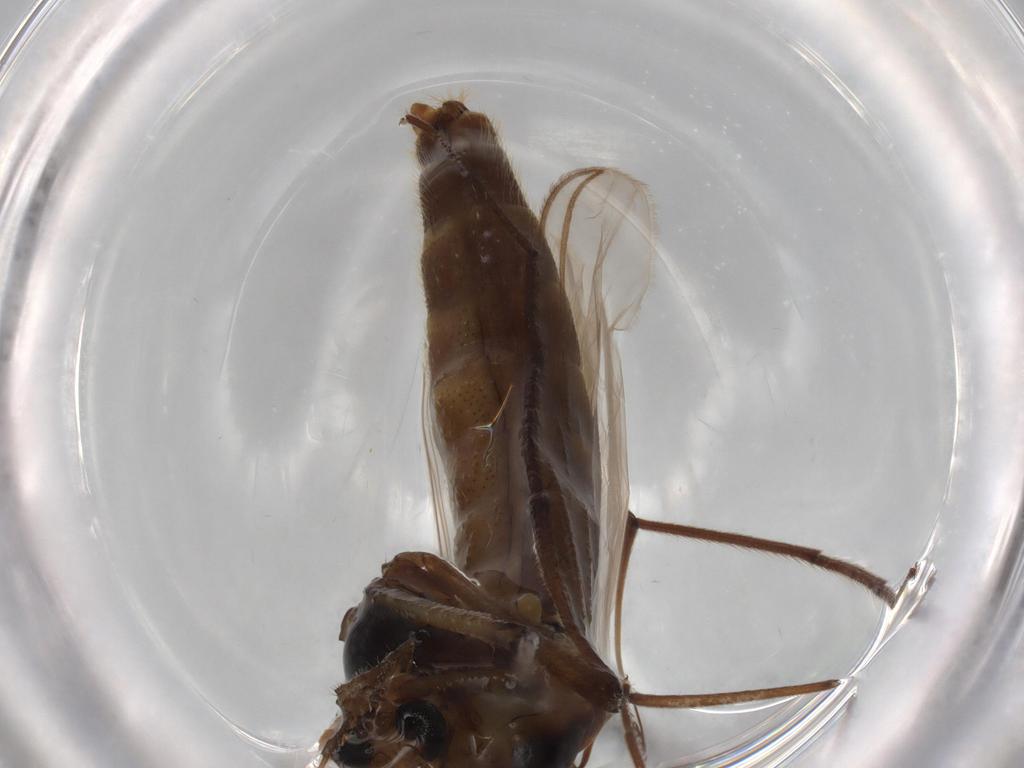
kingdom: Animalia
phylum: Arthropoda
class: Insecta
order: Diptera
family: Chironomidae
